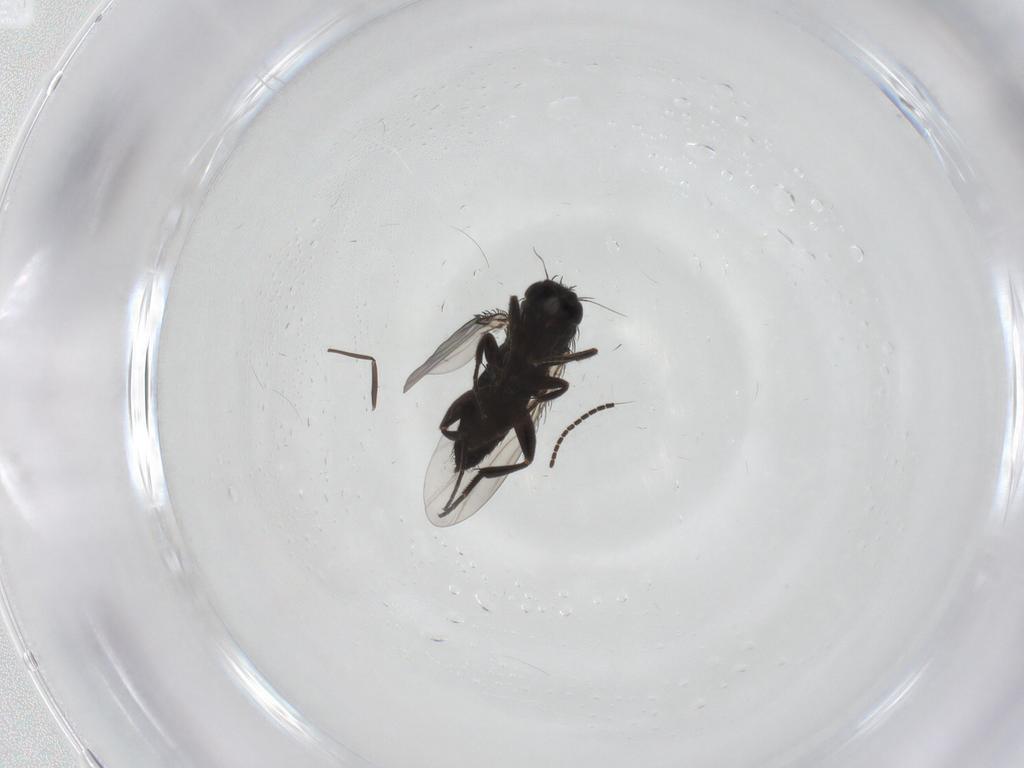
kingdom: Animalia
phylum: Arthropoda
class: Insecta
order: Diptera
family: Phoridae
